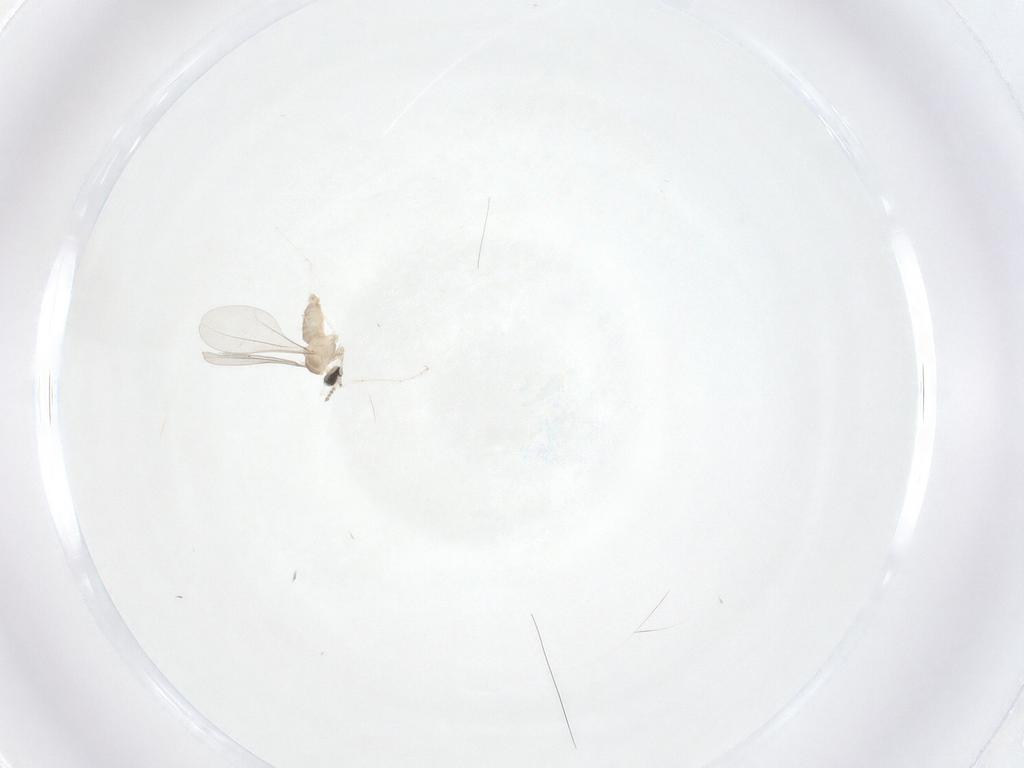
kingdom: Animalia
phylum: Arthropoda
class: Insecta
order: Diptera
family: Cecidomyiidae
